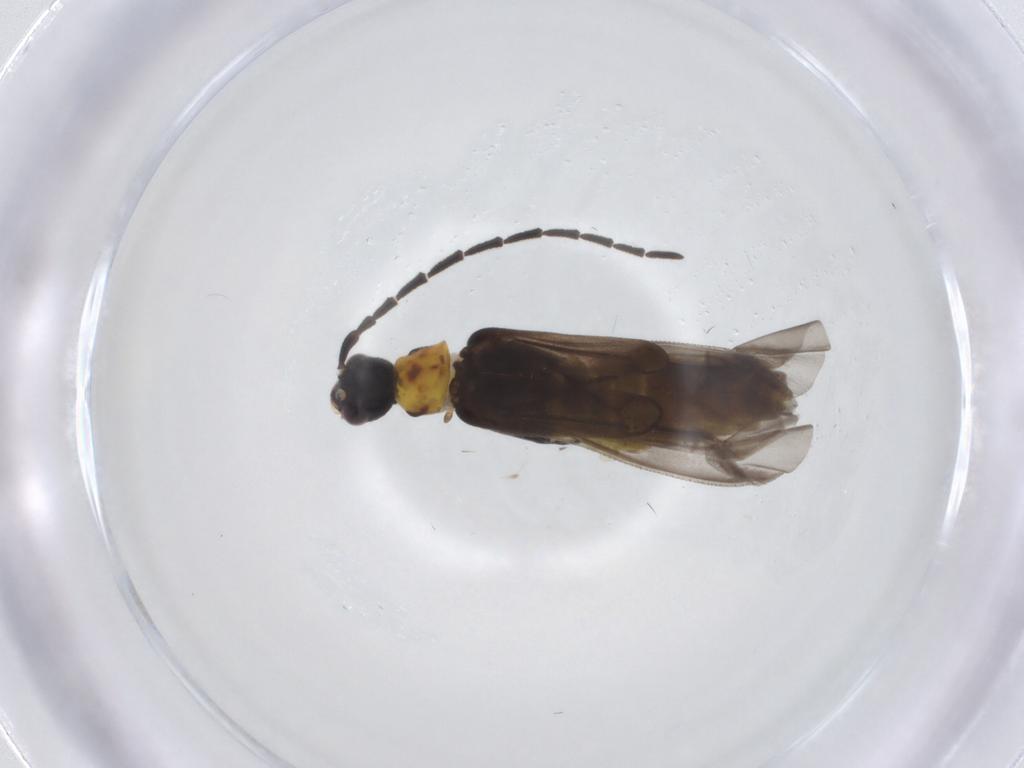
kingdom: Animalia
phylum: Arthropoda
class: Insecta
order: Coleoptera
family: Cantharidae
